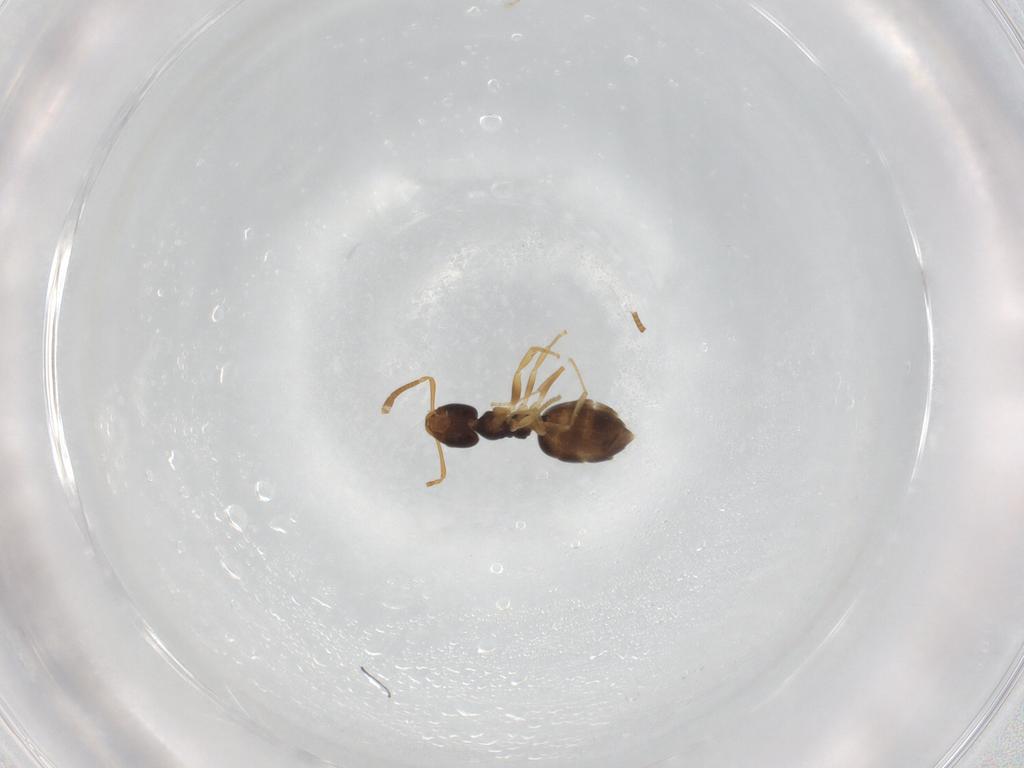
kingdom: Animalia
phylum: Arthropoda
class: Insecta
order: Hymenoptera
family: Formicidae
